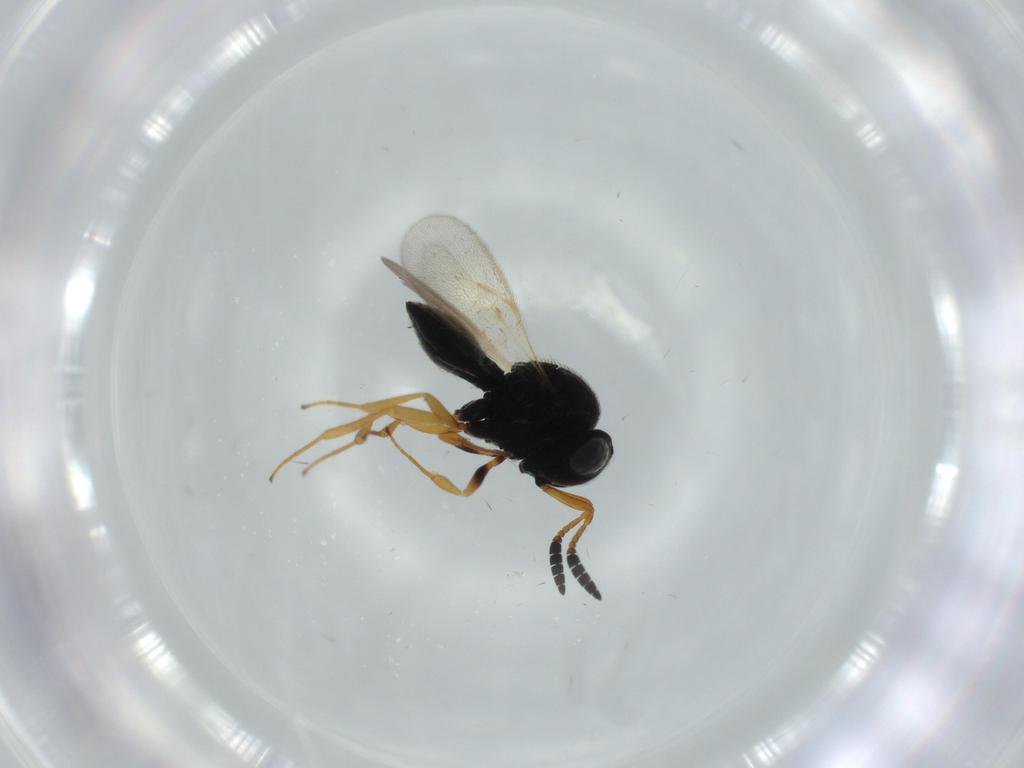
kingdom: Animalia
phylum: Arthropoda
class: Insecta
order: Hymenoptera
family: Scelionidae
